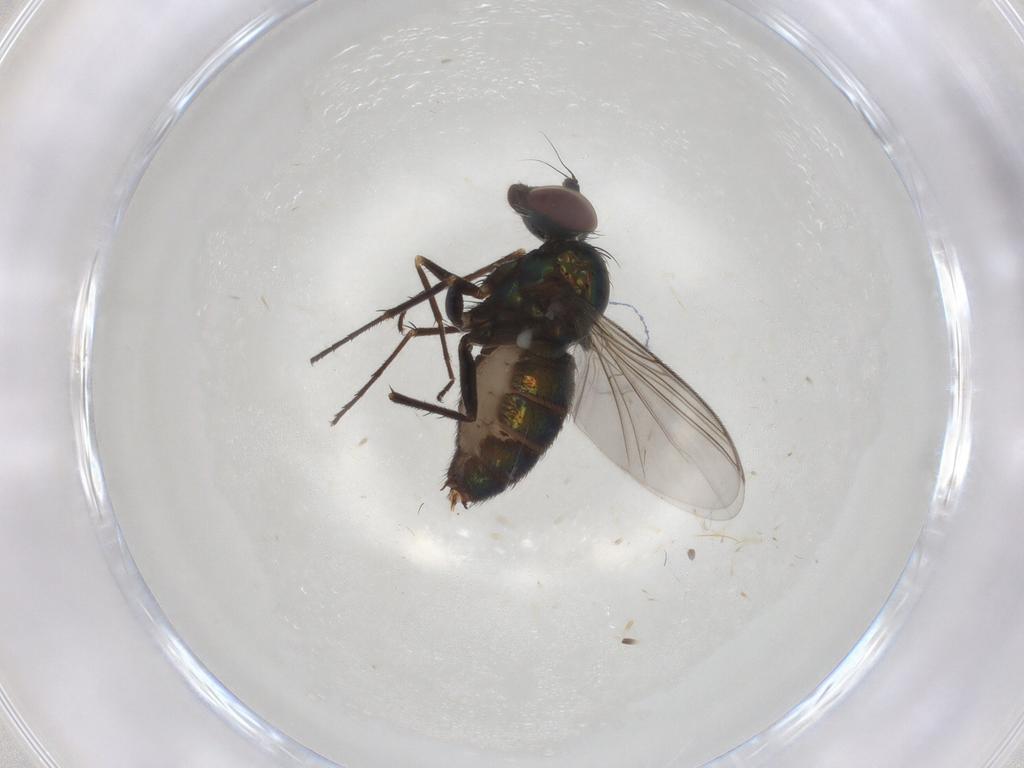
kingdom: Animalia
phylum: Arthropoda
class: Insecta
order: Diptera
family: Dolichopodidae
